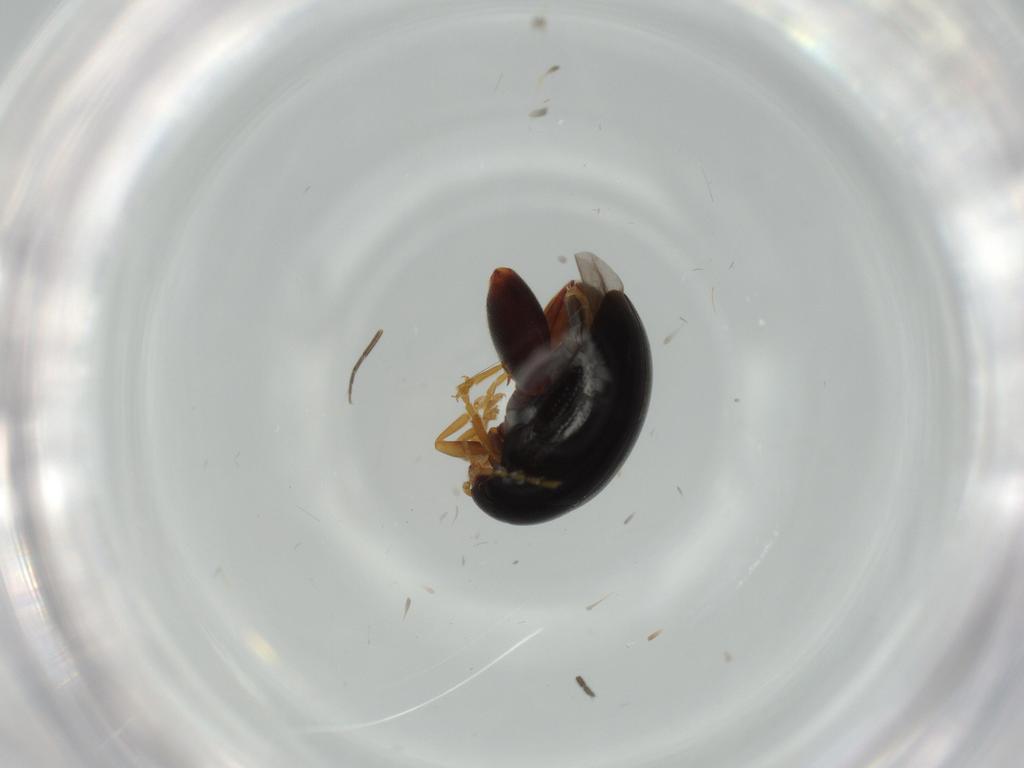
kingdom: Animalia
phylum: Arthropoda
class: Insecta
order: Coleoptera
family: Chrysomelidae
